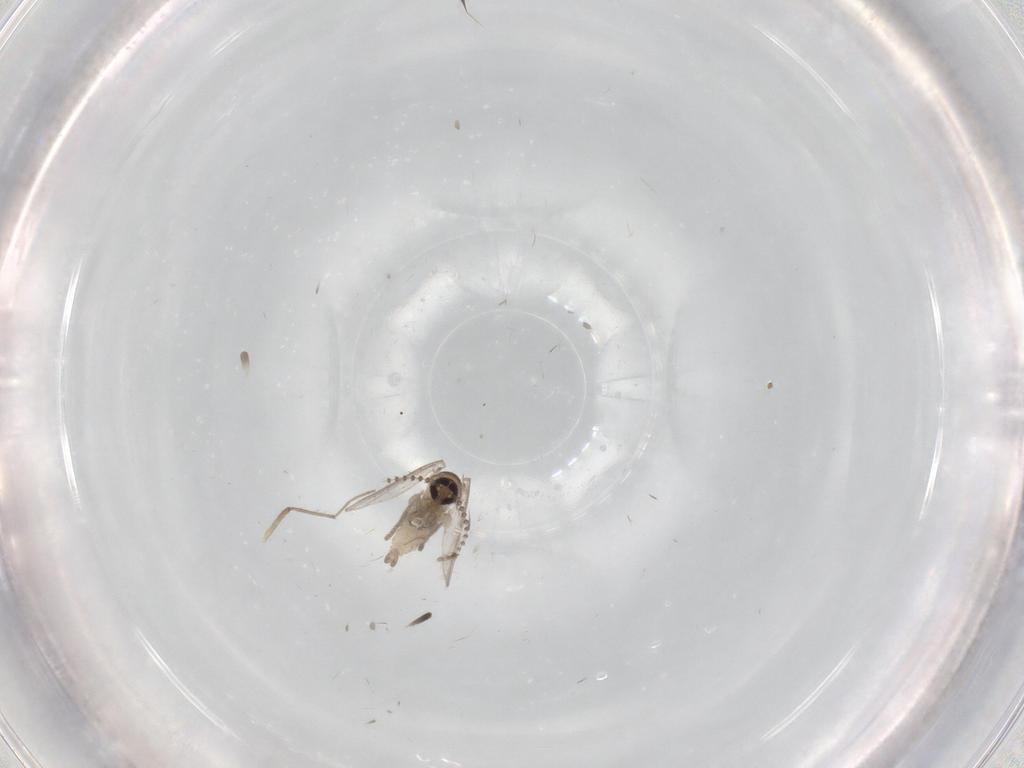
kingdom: Animalia
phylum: Arthropoda
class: Insecta
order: Diptera
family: Psychodidae
